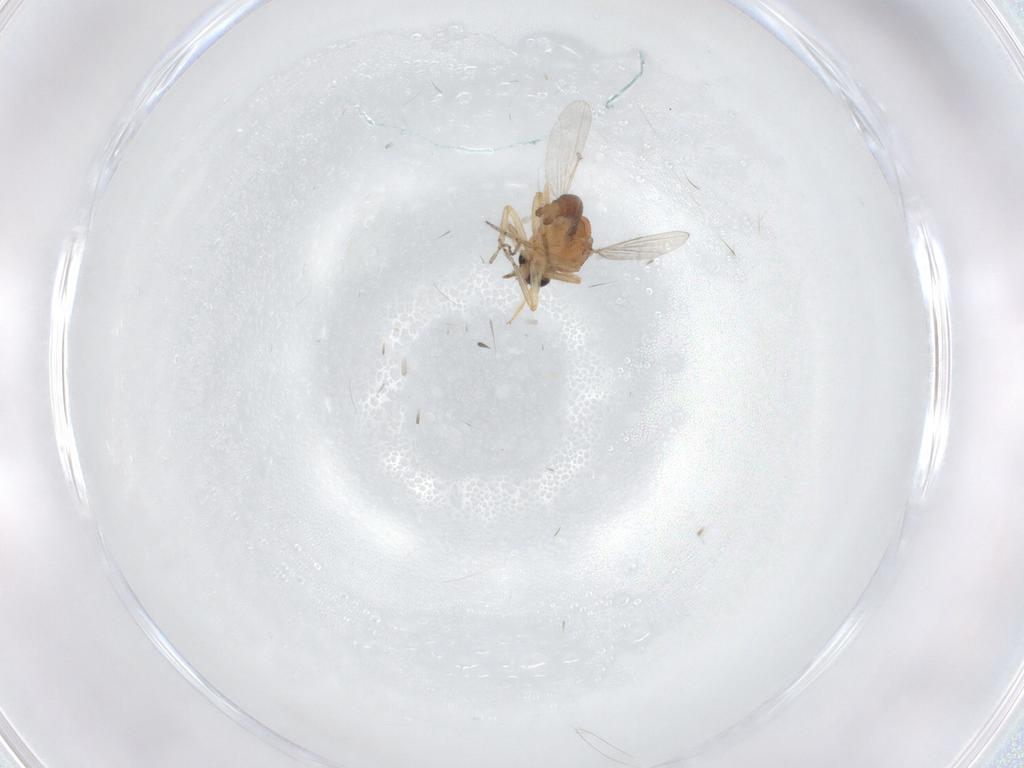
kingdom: Animalia
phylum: Arthropoda
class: Insecta
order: Diptera
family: Ceratopogonidae
